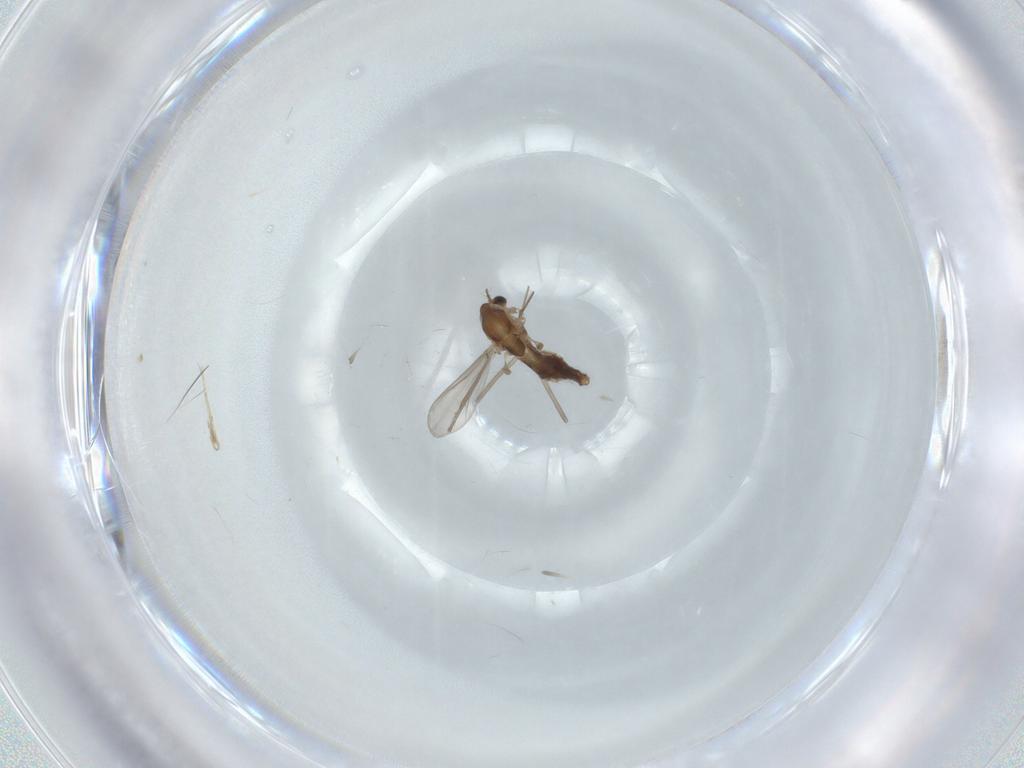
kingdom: Animalia
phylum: Arthropoda
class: Insecta
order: Diptera
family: Chironomidae
